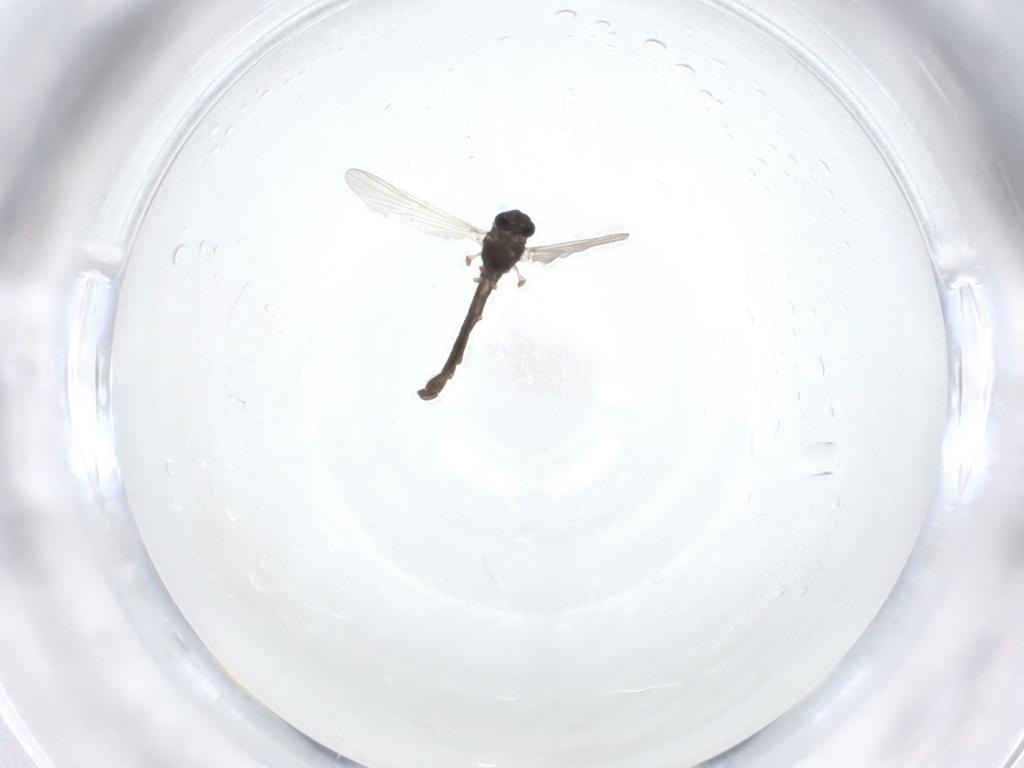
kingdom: Animalia
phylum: Arthropoda
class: Insecta
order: Diptera
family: Chironomidae
